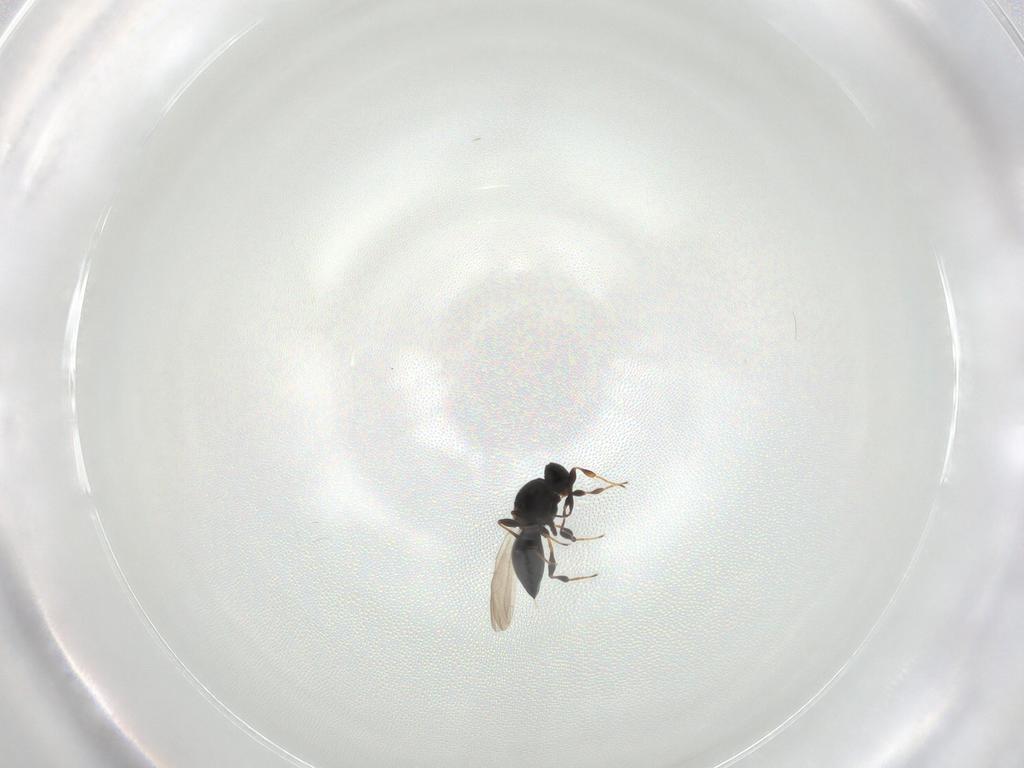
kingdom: Animalia
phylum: Arthropoda
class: Insecta
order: Hymenoptera
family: Platygastridae
